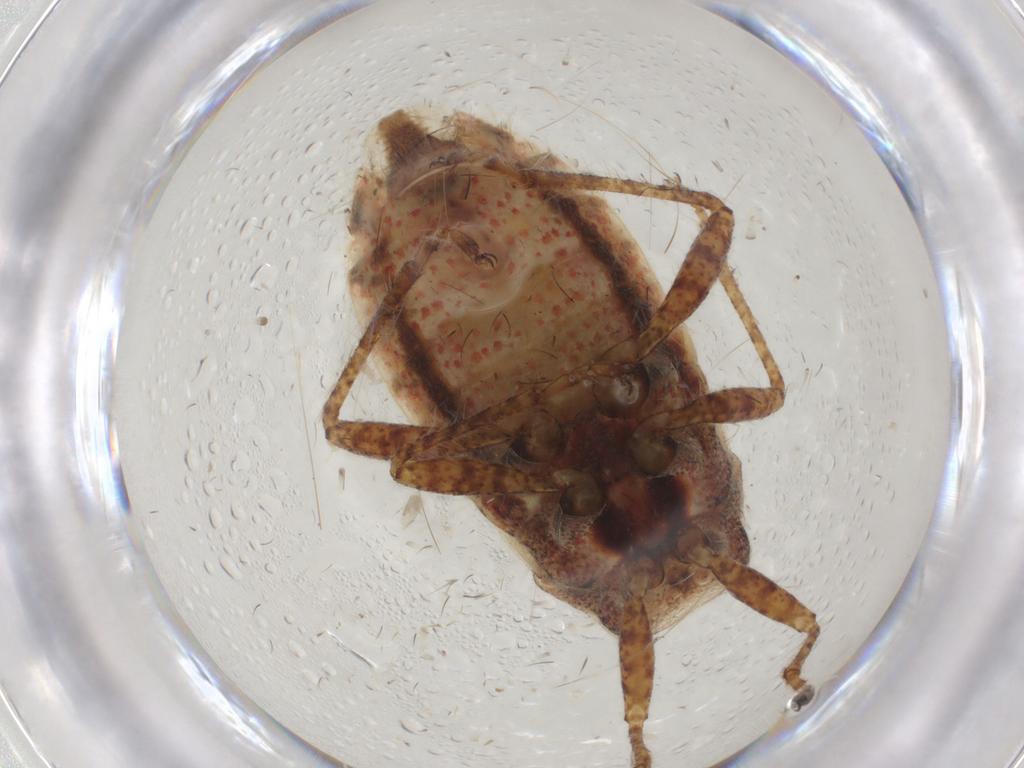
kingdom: Animalia
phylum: Arthropoda
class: Insecta
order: Hemiptera
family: Rhopalidae
